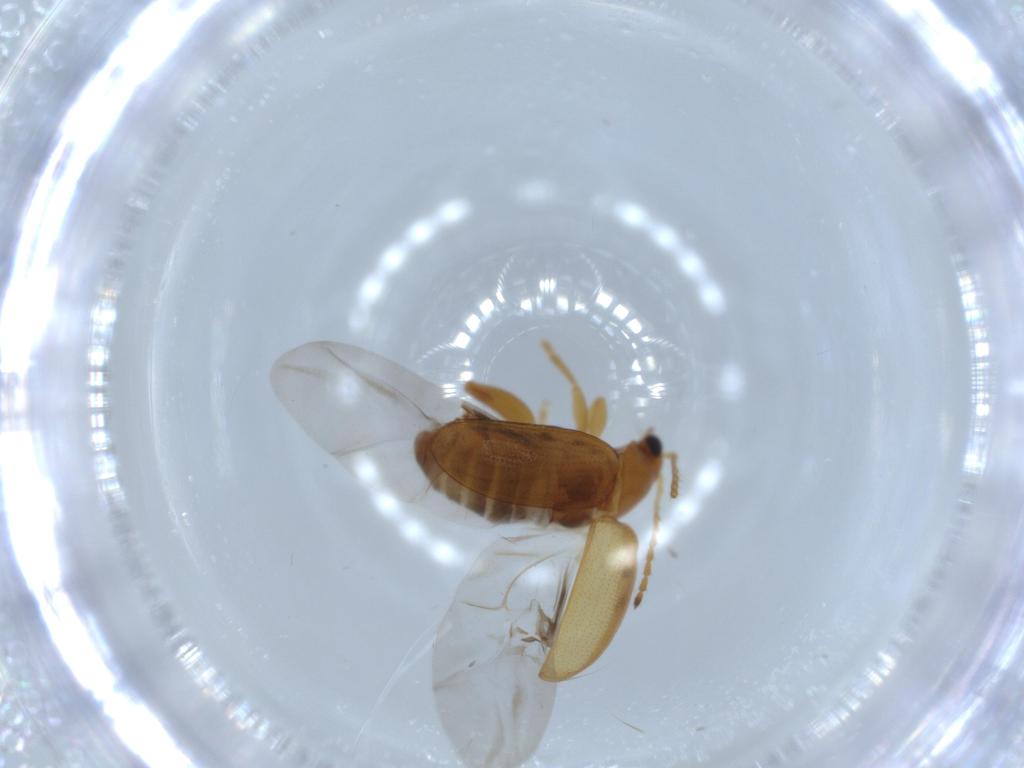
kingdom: Animalia
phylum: Arthropoda
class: Insecta
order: Coleoptera
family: Chrysomelidae
